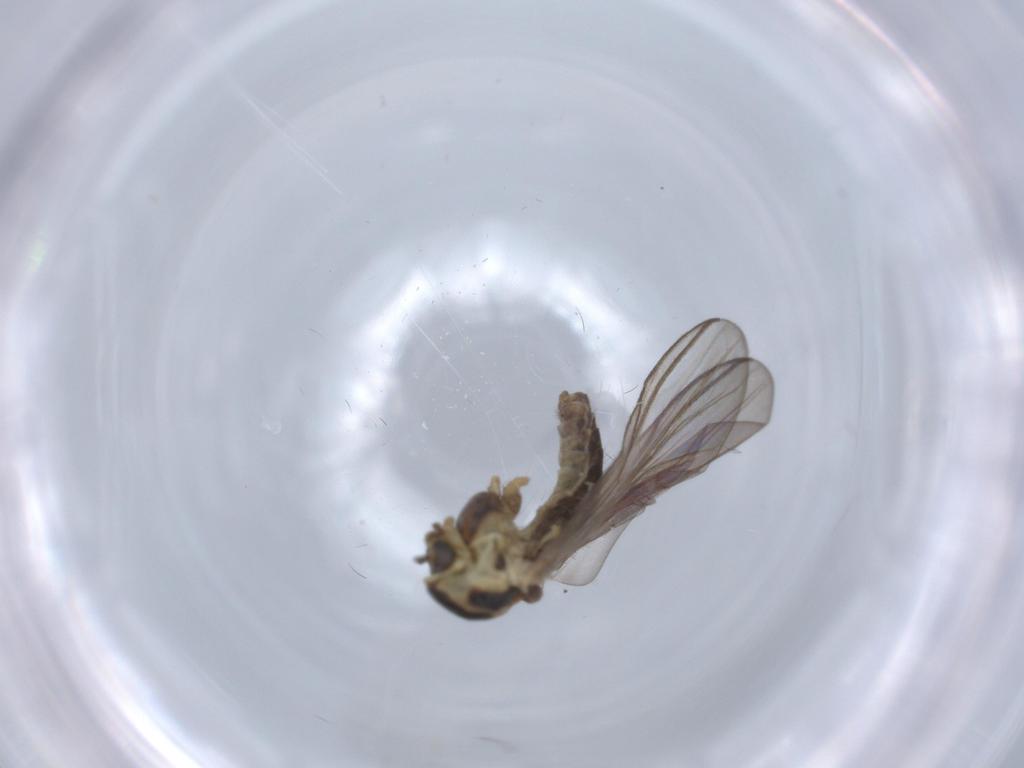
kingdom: Animalia
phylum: Arthropoda
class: Insecta
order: Diptera
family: Chironomidae
